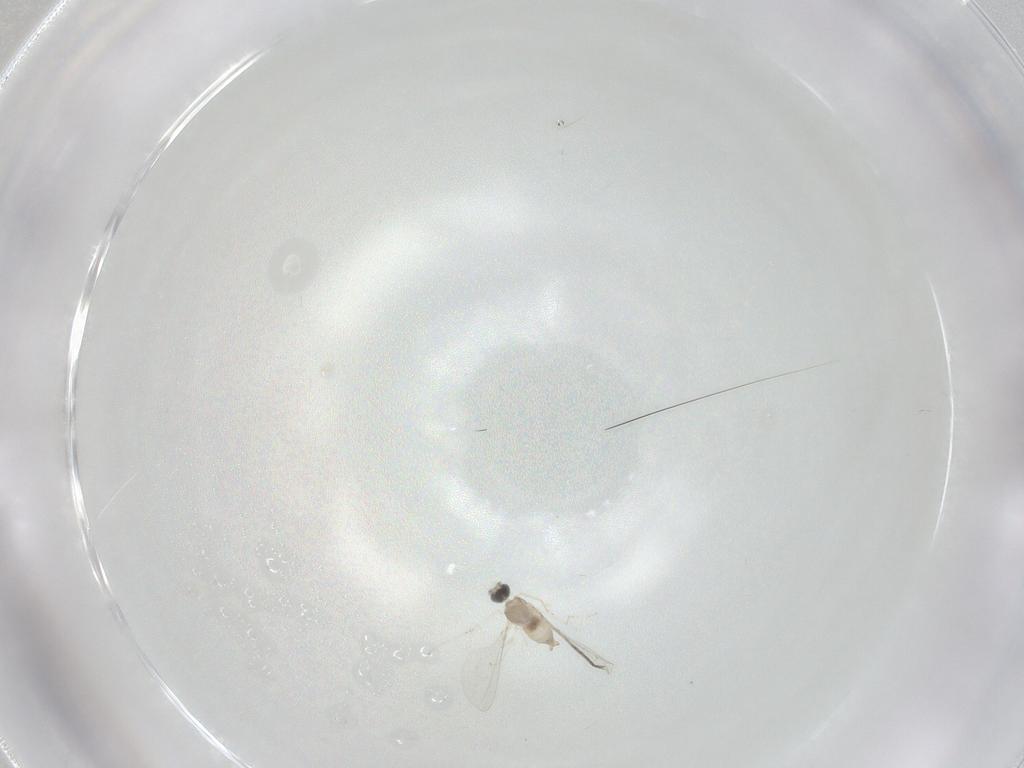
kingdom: Animalia
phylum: Arthropoda
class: Insecta
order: Diptera
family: Cecidomyiidae
